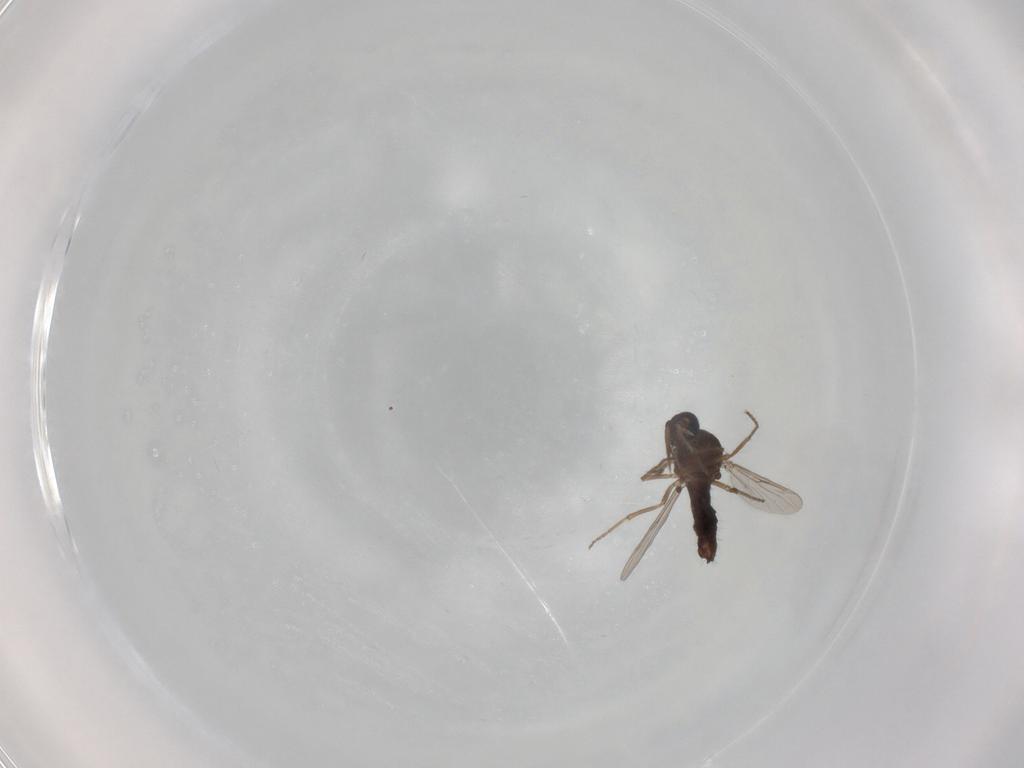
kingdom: Animalia
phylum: Arthropoda
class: Insecta
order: Diptera
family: Ceratopogonidae
